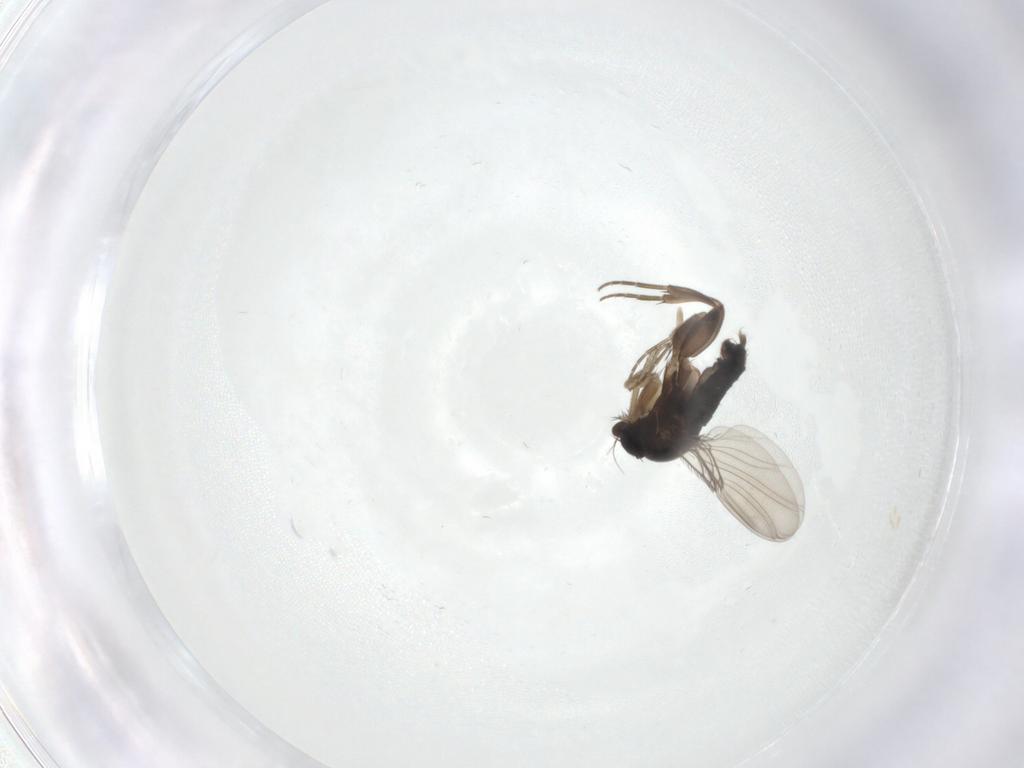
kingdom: Animalia
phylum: Arthropoda
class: Insecta
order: Diptera
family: Phoridae
